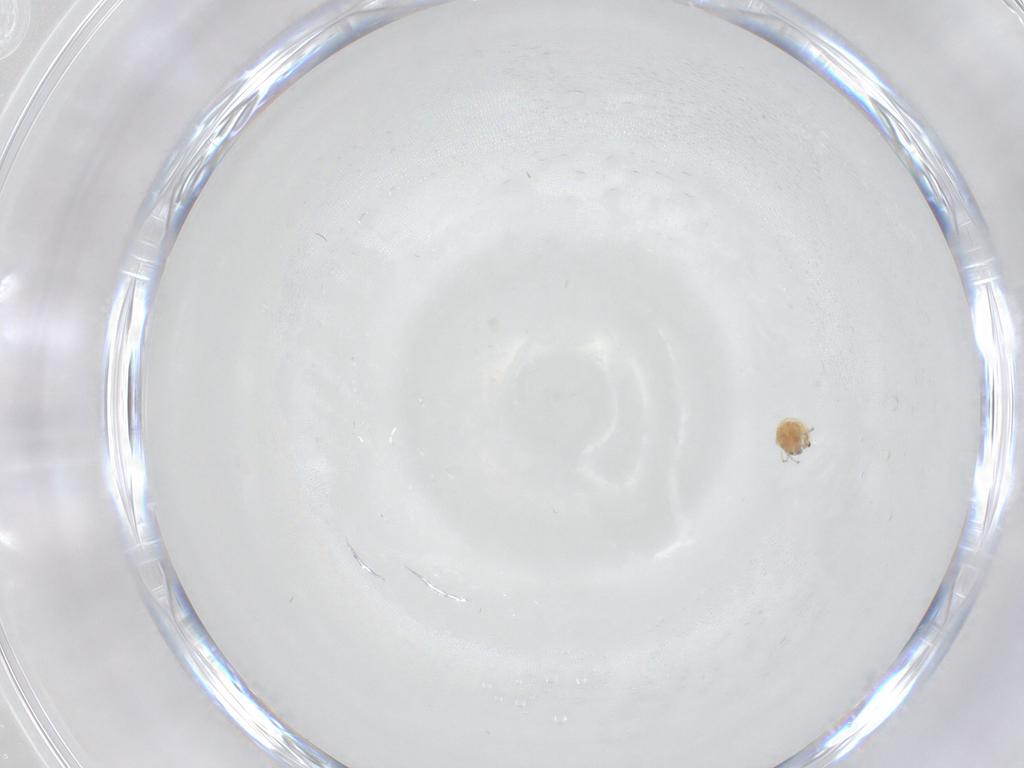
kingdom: Animalia
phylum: Arthropoda
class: Arachnida
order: Trombidiformes
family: Pionidae
